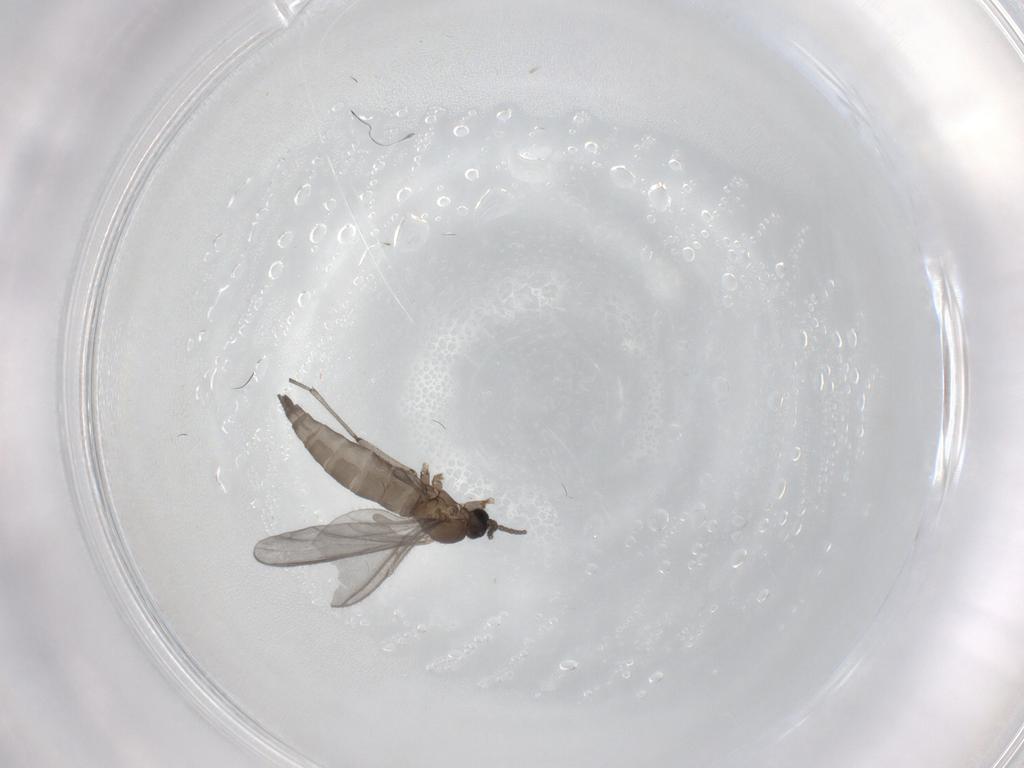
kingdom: Animalia
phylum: Arthropoda
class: Insecta
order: Diptera
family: Sciaridae
